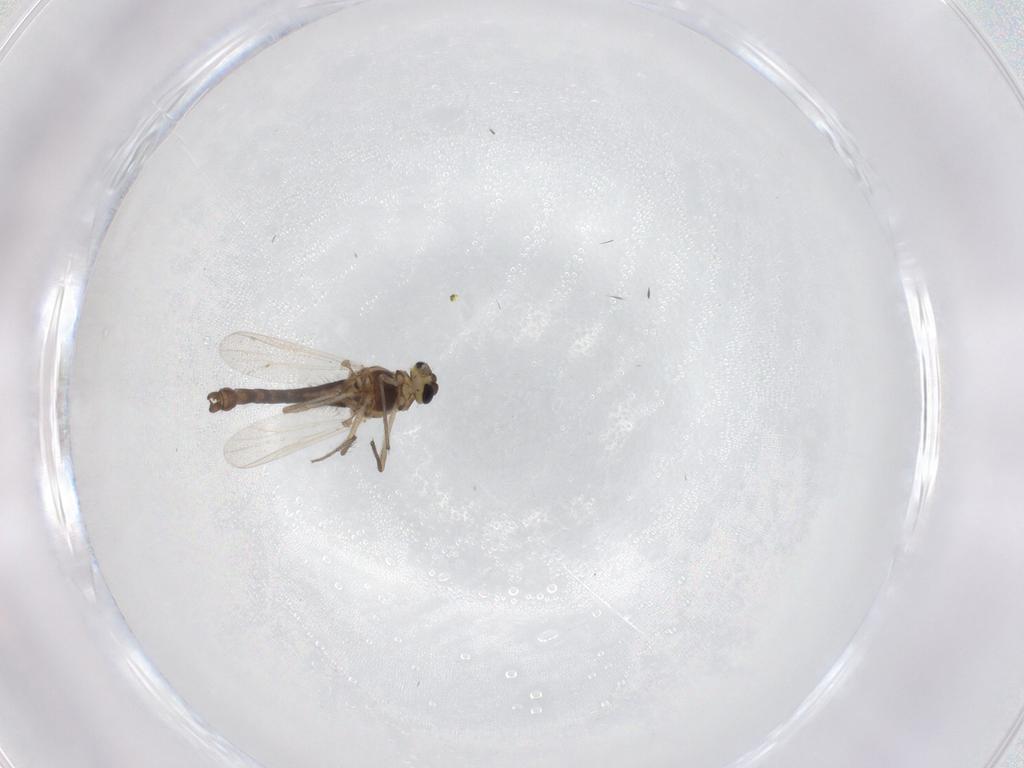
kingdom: Animalia
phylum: Arthropoda
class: Insecta
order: Diptera
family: Chironomidae
